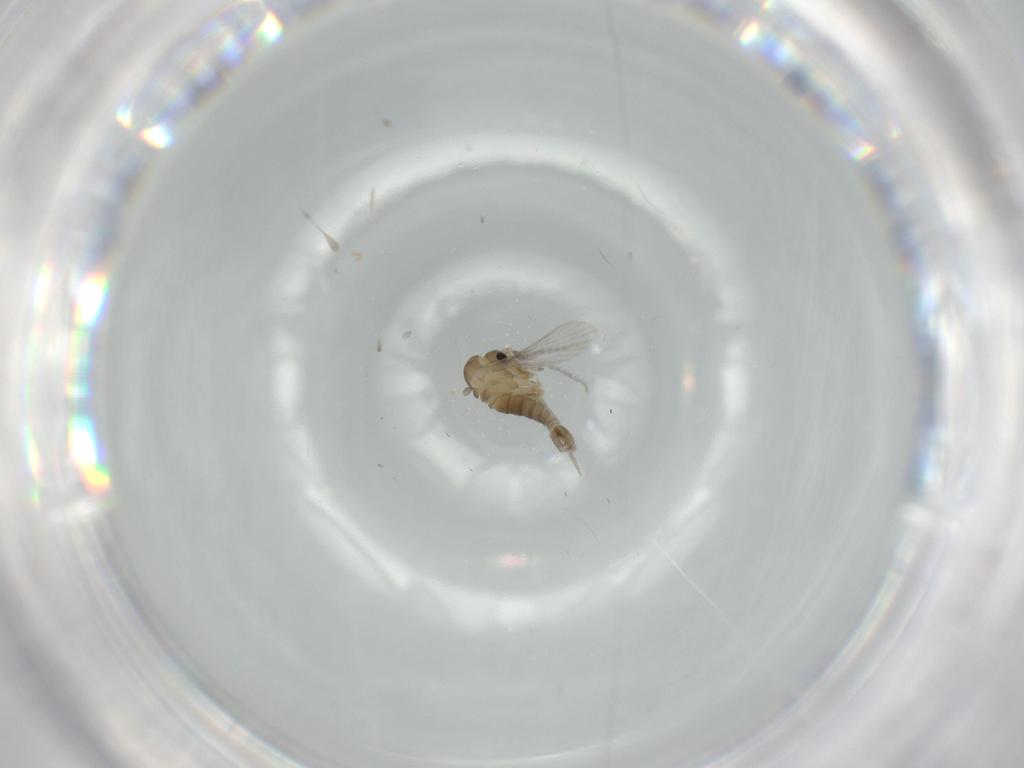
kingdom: Animalia
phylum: Arthropoda
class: Insecta
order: Diptera
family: Psychodidae
